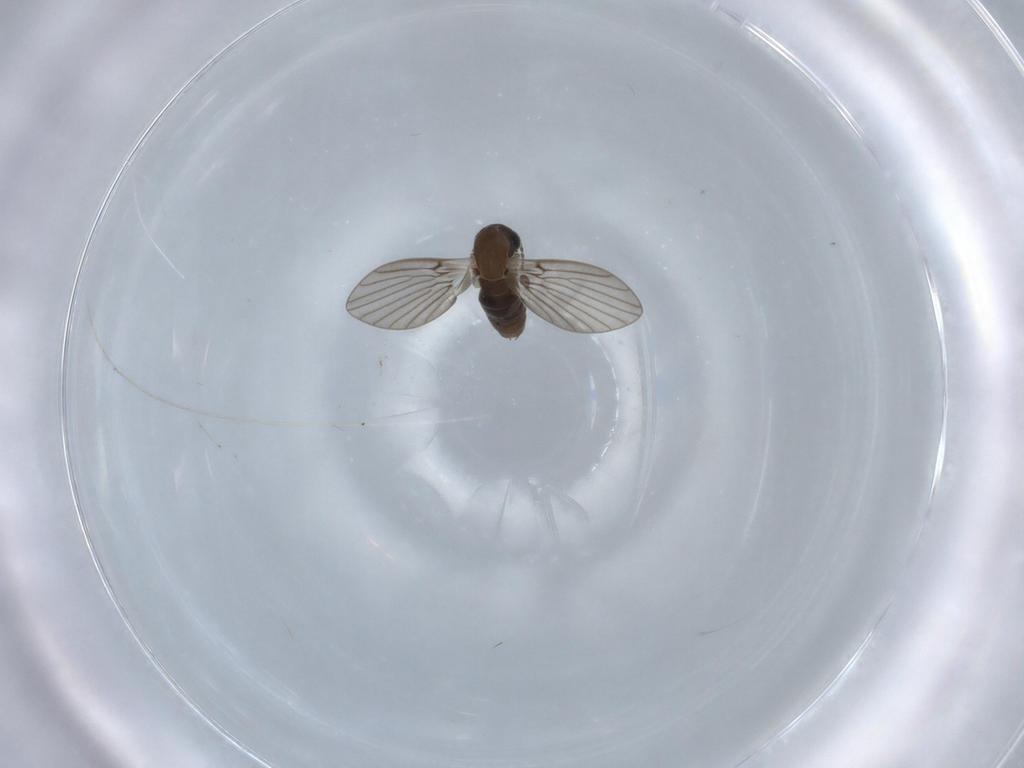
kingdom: Animalia
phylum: Arthropoda
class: Insecta
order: Diptera
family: Psychodidae
